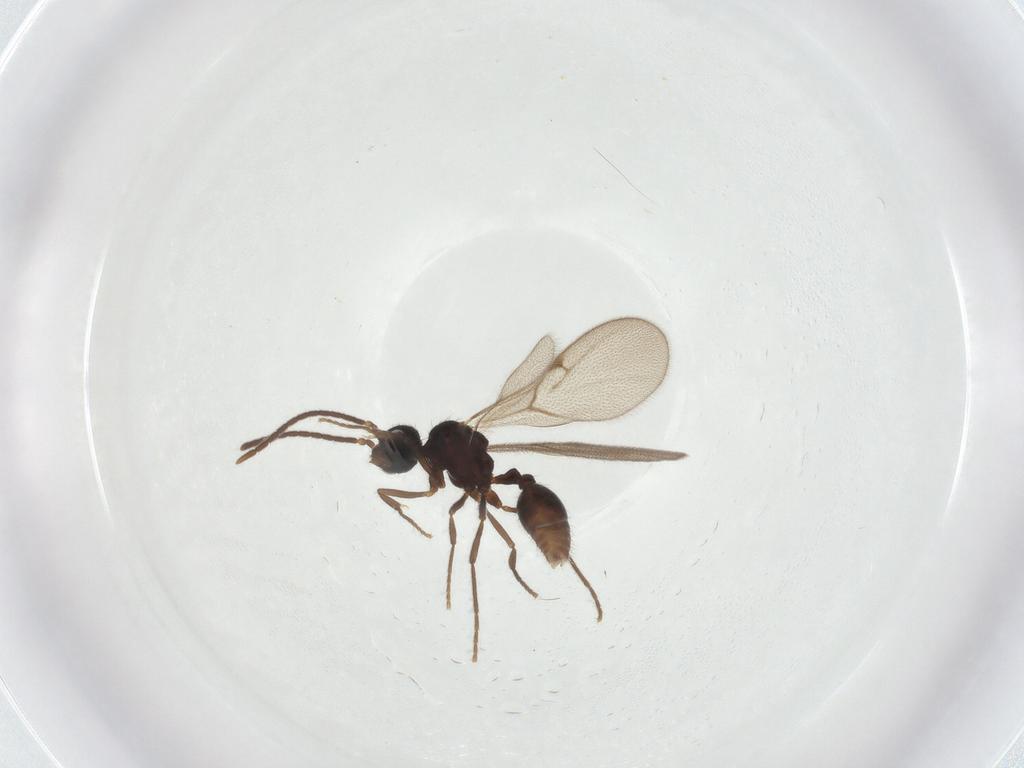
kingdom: Animalia
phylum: Arthropoda
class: Insecta
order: Hymenoptera
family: Formicidae
